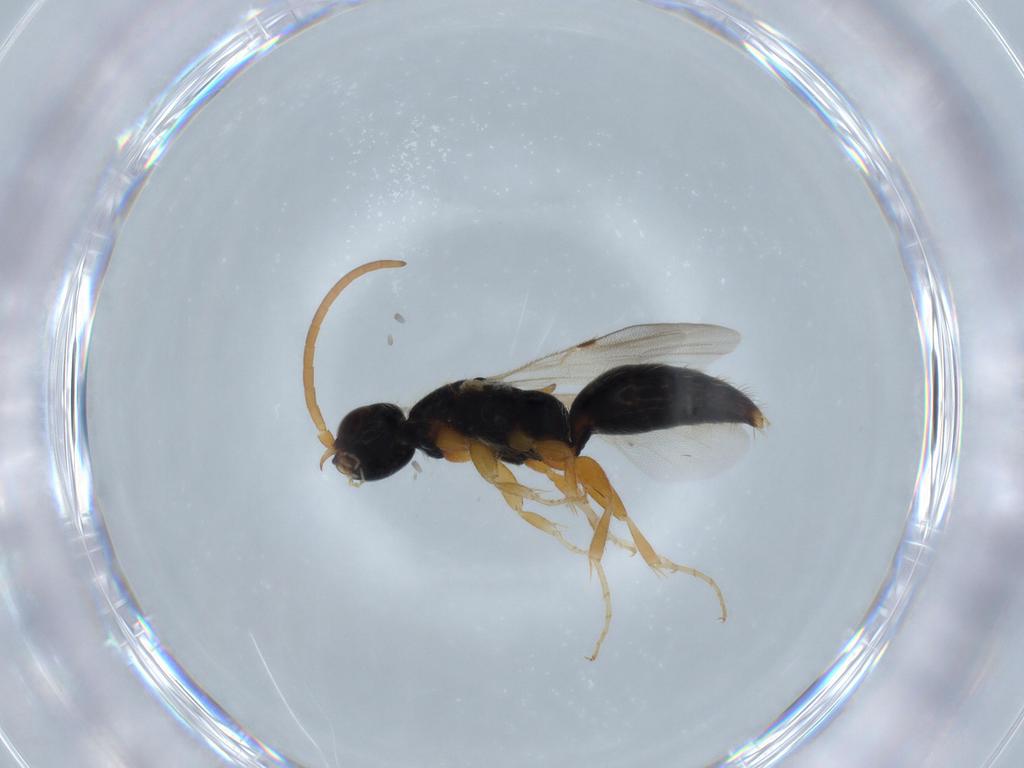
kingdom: Animalia
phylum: Arthropoda
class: Insecta
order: Hymenoptera
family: Bethylidae
